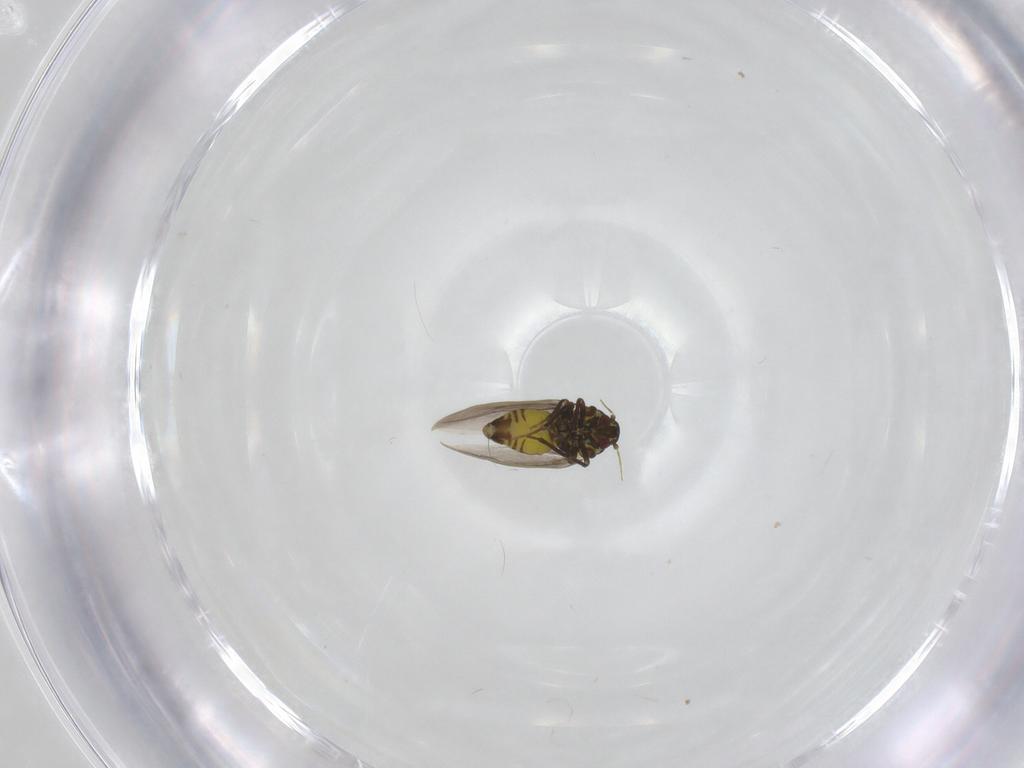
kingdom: Animalia
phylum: Arthropoda
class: Insecta
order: Hemiptera
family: Aleyrodidae
